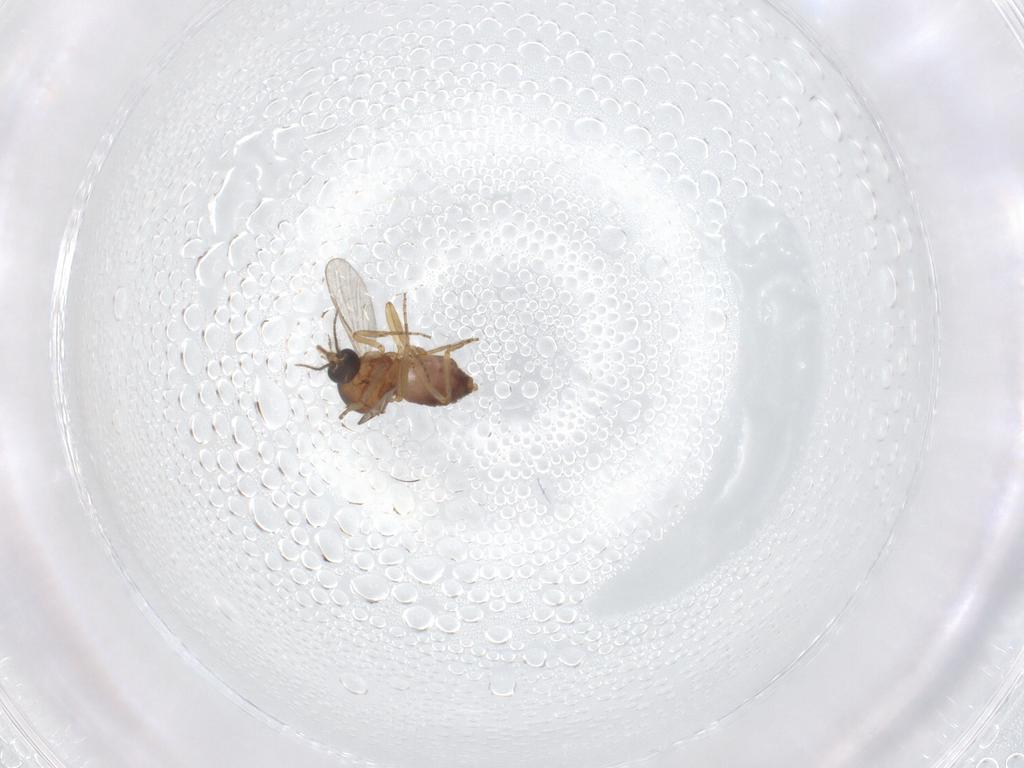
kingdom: Animalia
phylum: Arthropoda
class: Insecta
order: Diptera
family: Ceratopogonidae
